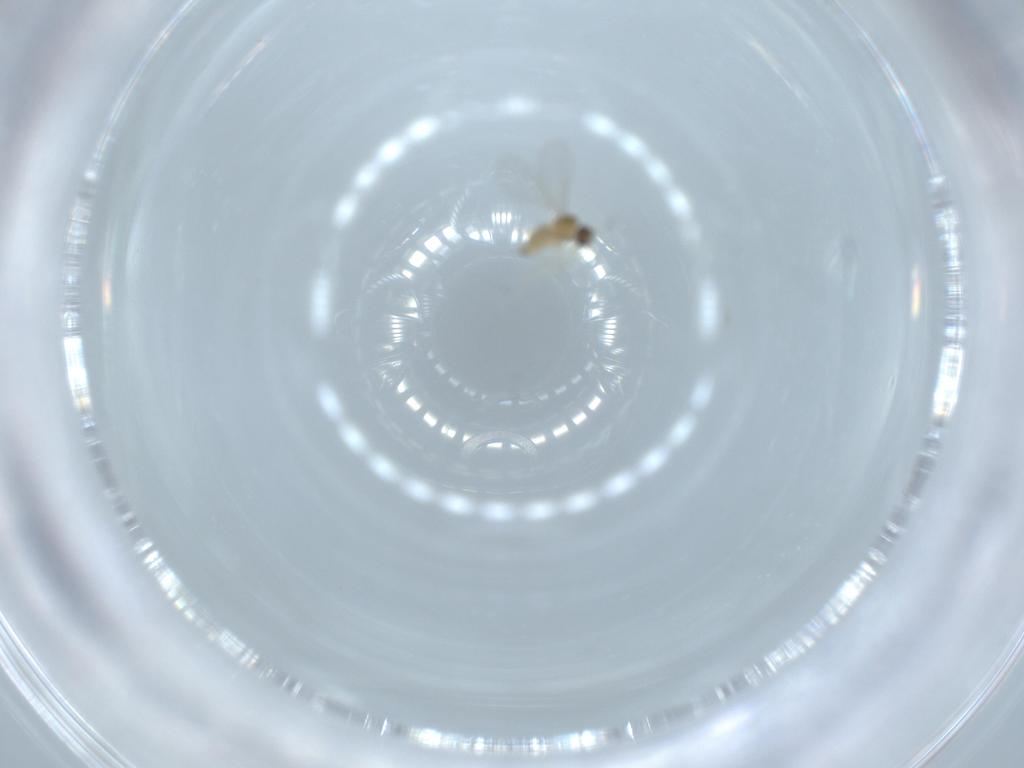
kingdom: Animalia
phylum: Arthropoda
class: Insecta
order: Diptera
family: Cecidomyiidae
